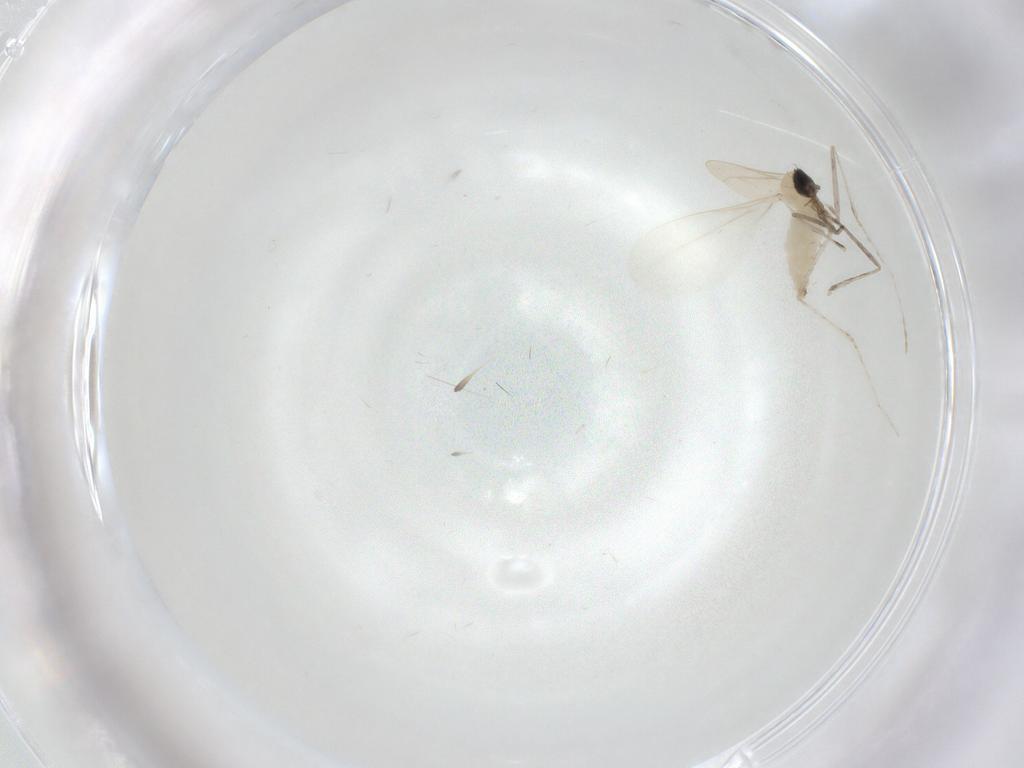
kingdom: Animalia
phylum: Arthropoda
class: Insecta
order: Diptera
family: Cecidomyiidae
